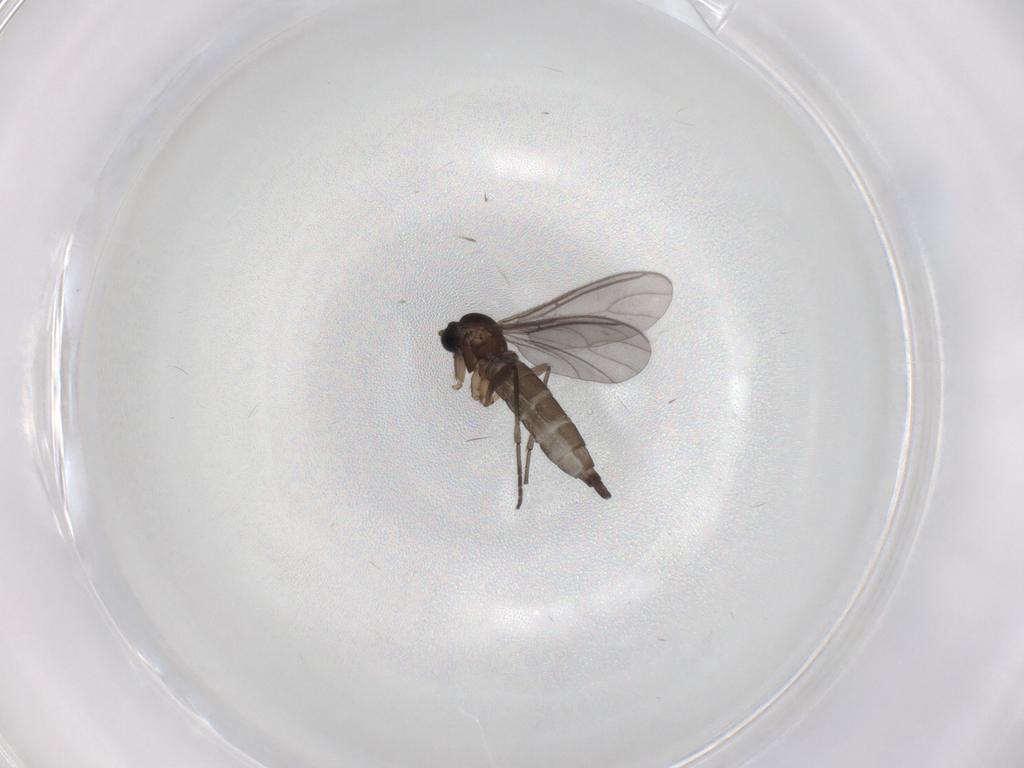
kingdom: Animalia
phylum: Arthropoda
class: Insecta
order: Diptera
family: Sciaridae
